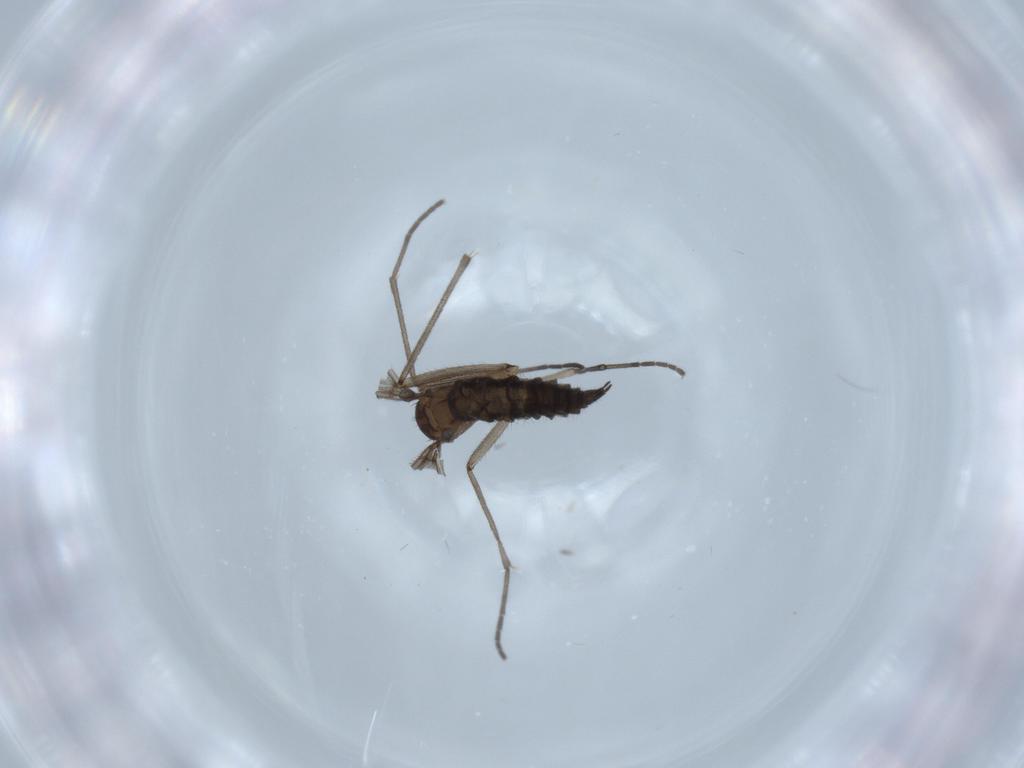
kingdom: Animalia
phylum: Arthropoda
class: Insecta
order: Diptera
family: Sciaridae
